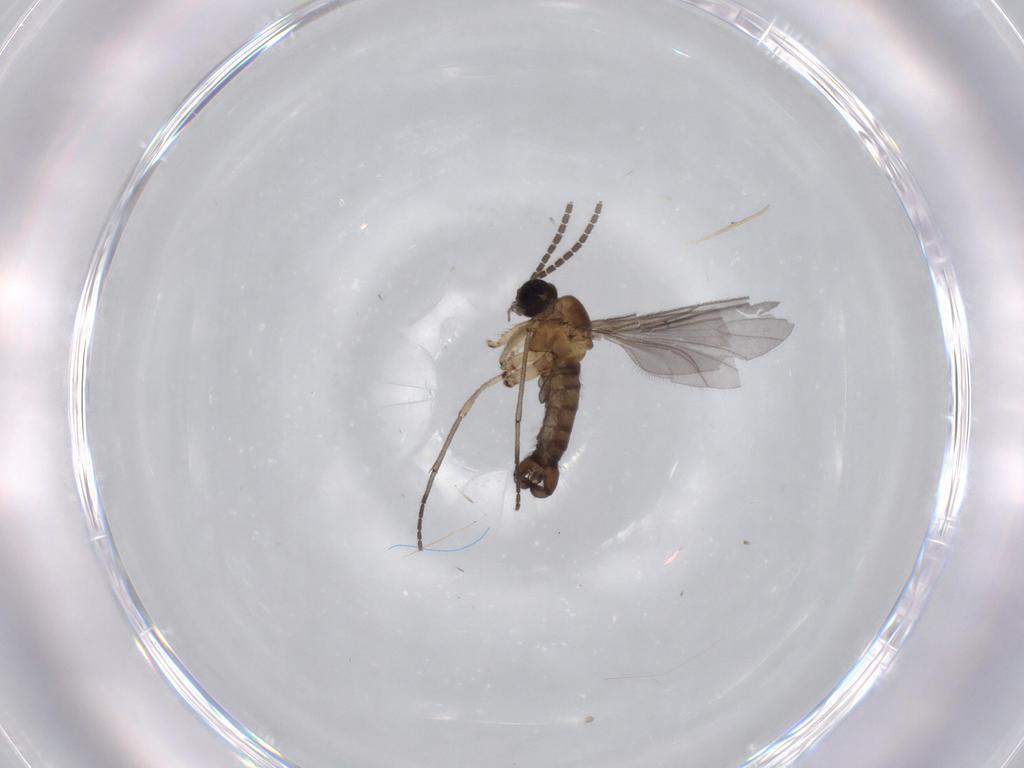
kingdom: Animalia
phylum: Arthropoda
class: Insecta
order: Diptera
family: Sciaridae
